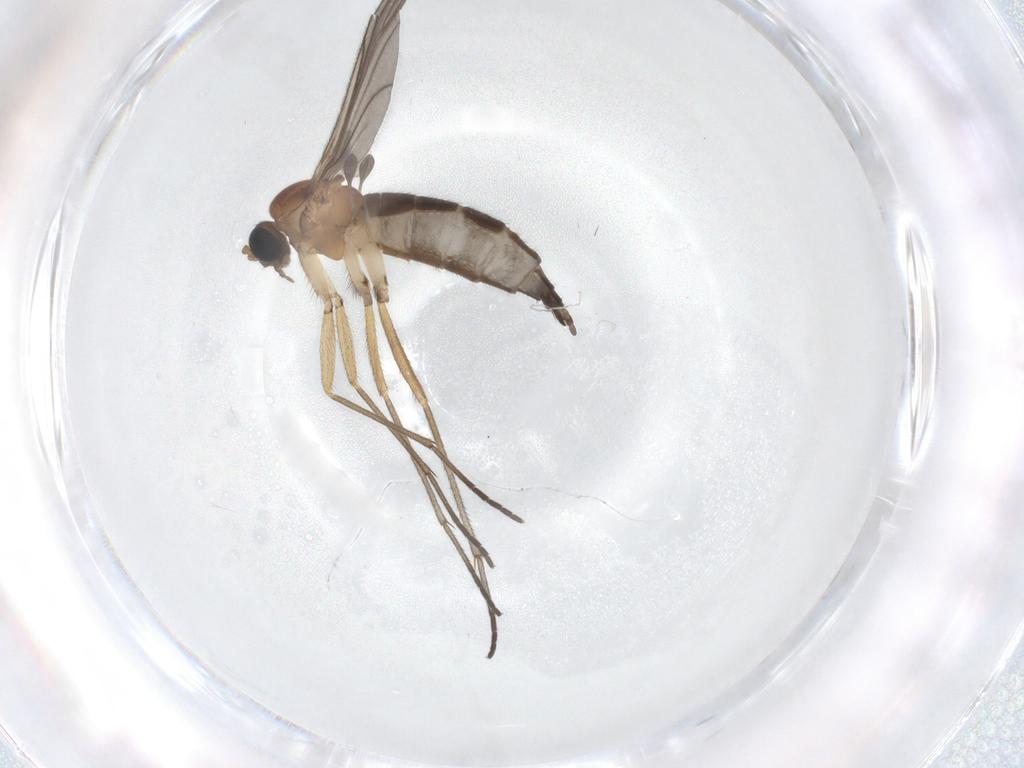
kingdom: Animalia
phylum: Arthropoda
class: Insecta
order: Diptera
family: Sciaridae
